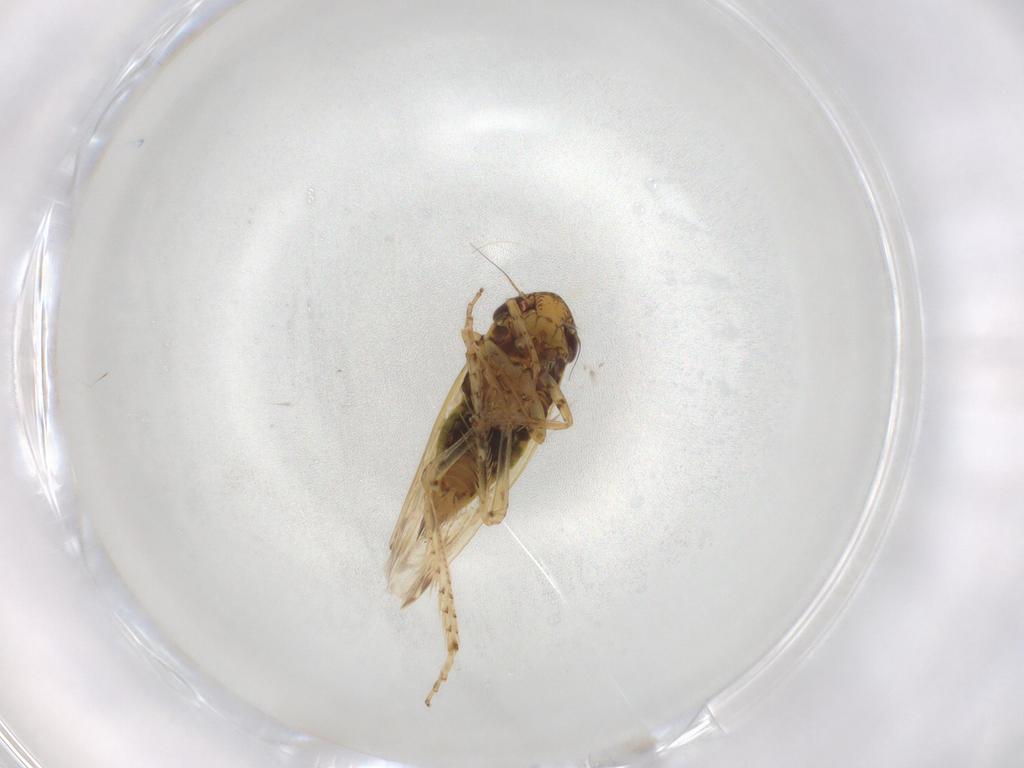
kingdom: Animalia
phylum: Arthropoda
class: Insecta
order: Hemiptera
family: Cicadellidae
